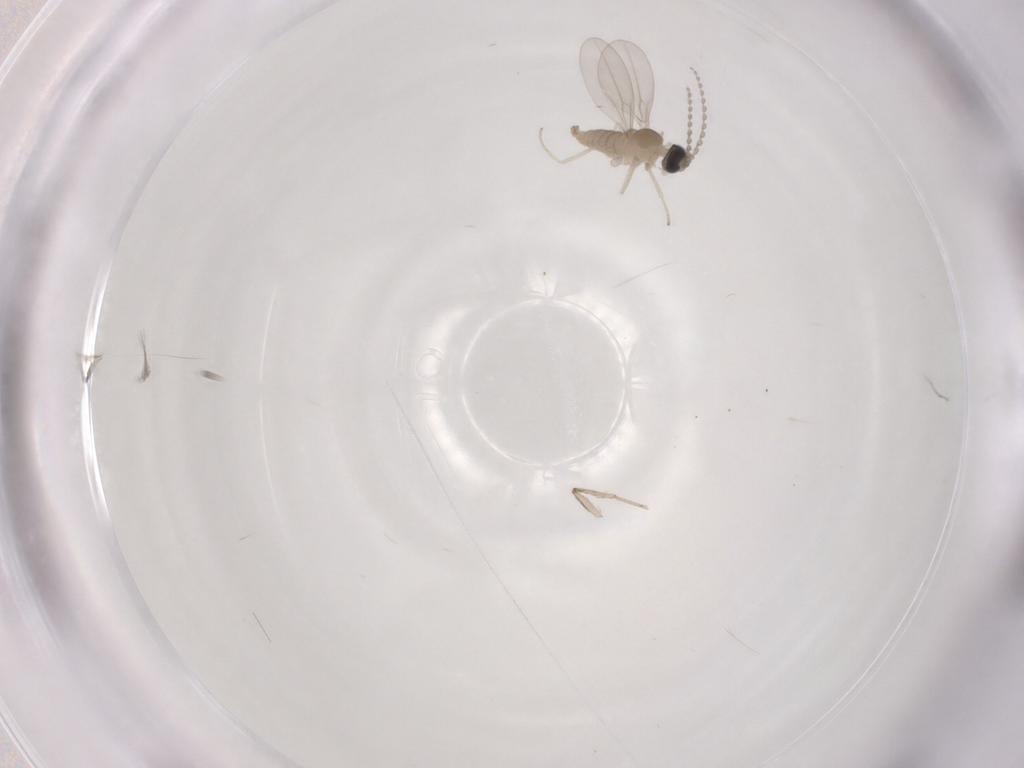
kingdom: Animalia
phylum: Arthropoda
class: Insecta
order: Diptera
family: Psychodidae
